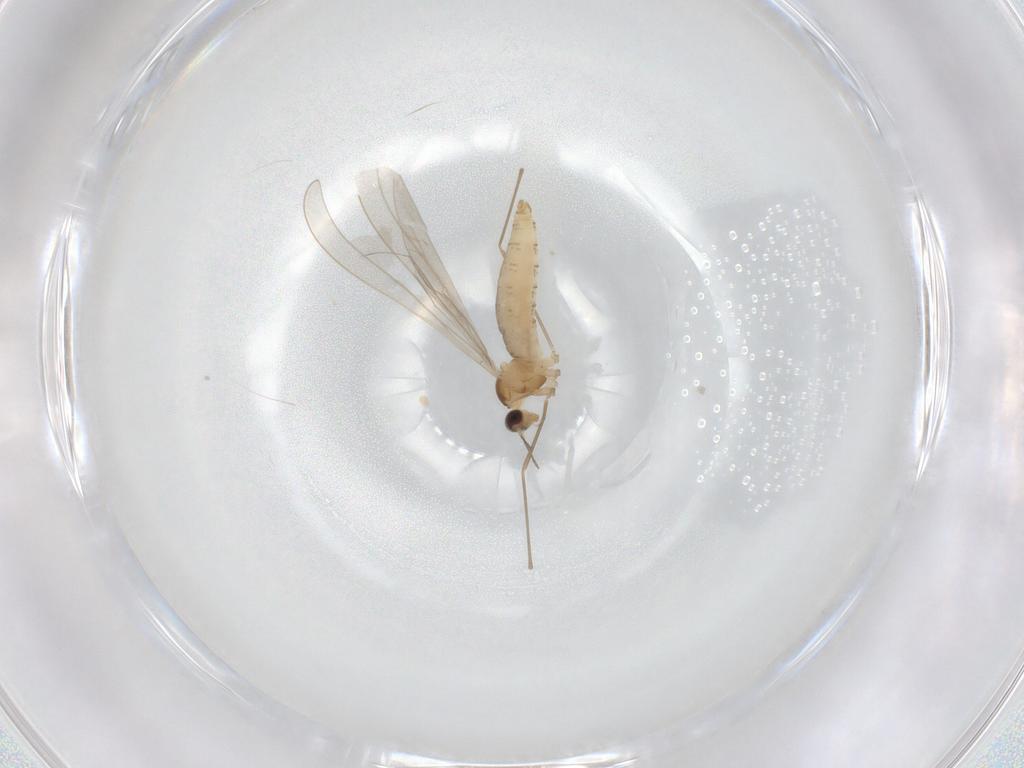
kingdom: Animalia
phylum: Arthropoda
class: Insecta
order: Diptera
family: Cecidomyiidae
